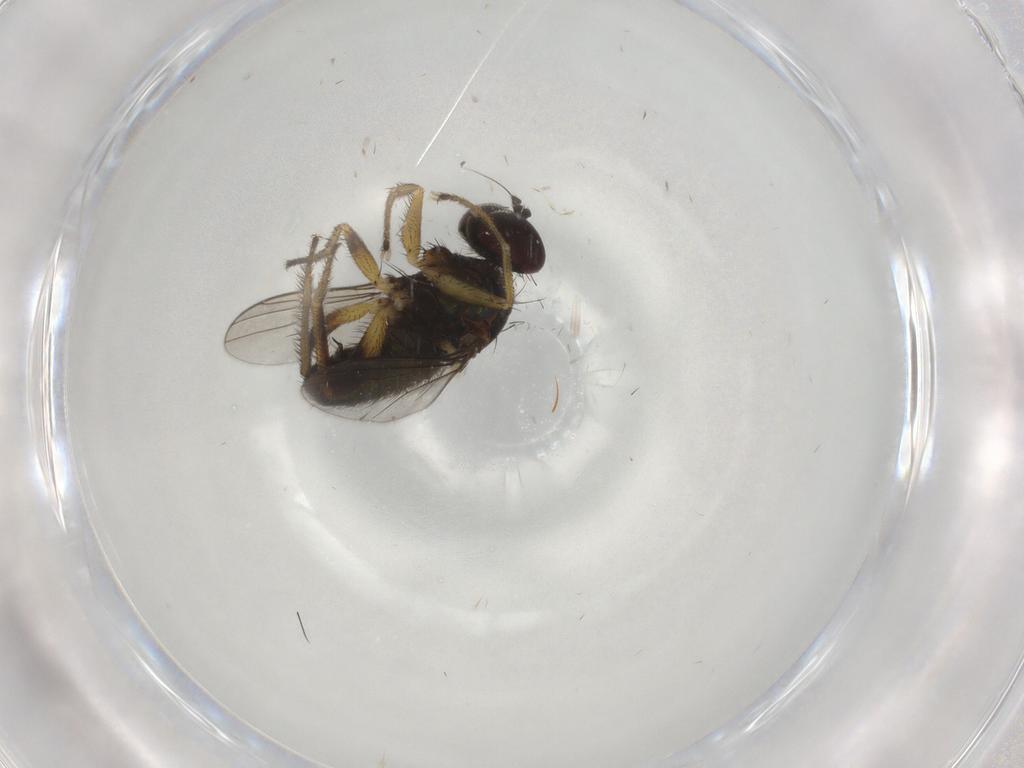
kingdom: Animalia
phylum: Arthropoda
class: Insecta
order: Diptera
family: Dolichopodidae
